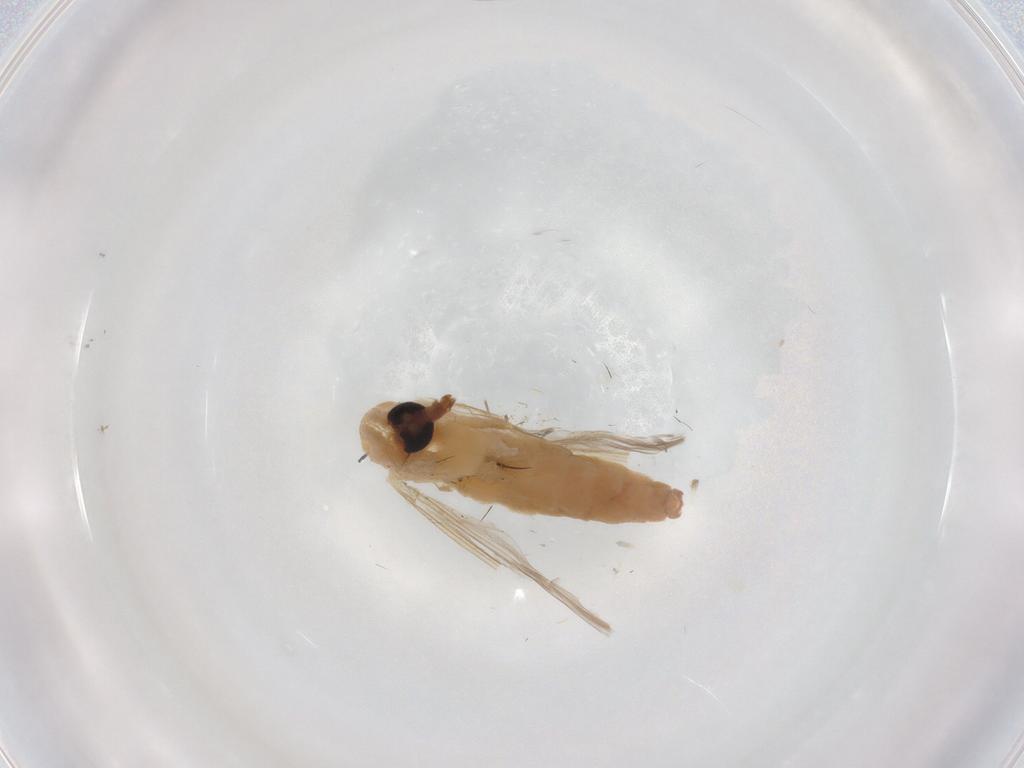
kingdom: Animalia
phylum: Arthropoda
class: Insecta
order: Diptera
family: Chironomidae
